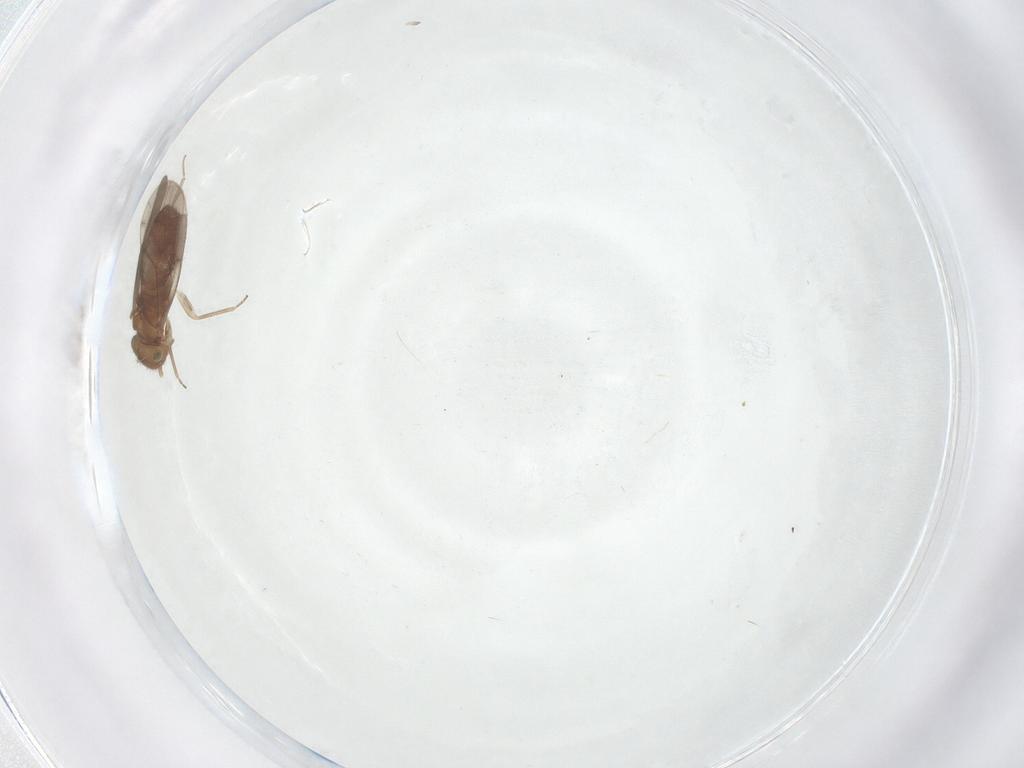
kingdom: Animalia
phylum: Arthropoda
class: Insecta
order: Psocodea
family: Ectopsocidae
